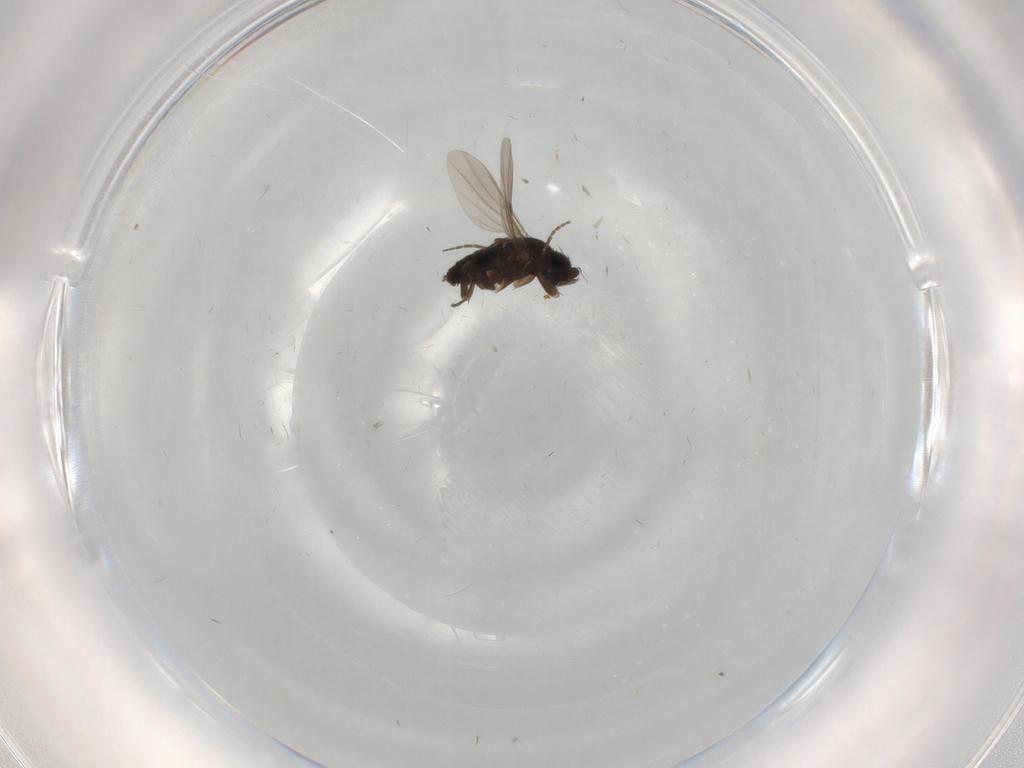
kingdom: Animalia
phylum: Arthropoda
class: Insecta
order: Diptera
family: Phoridae
